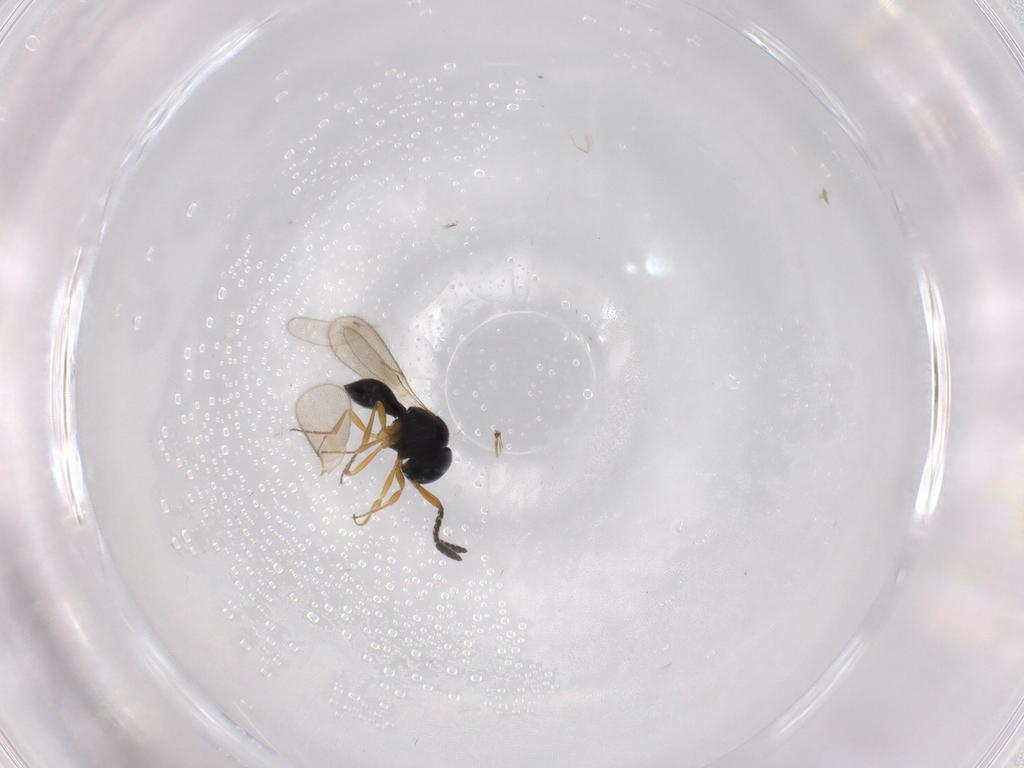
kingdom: Animalia
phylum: Arthropoda
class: Insecta
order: Hymenoptera
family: Scelionidae
